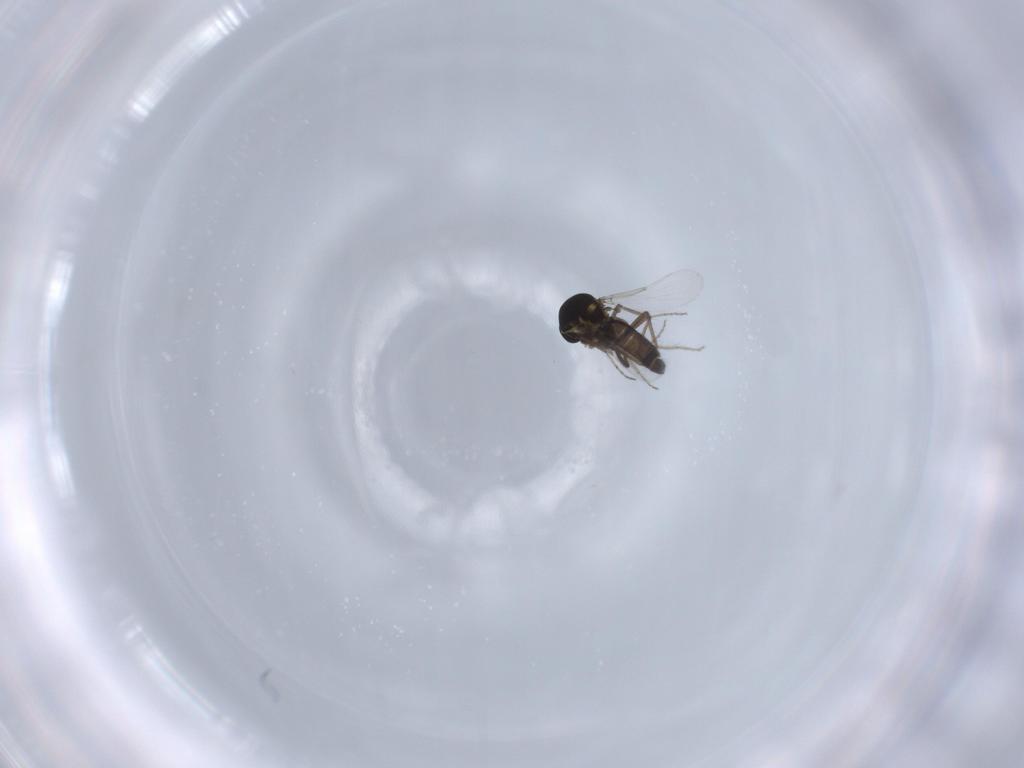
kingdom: Animalia
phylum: Arthropoda
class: Insecta
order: Diptera
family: Ceratopogonidae
